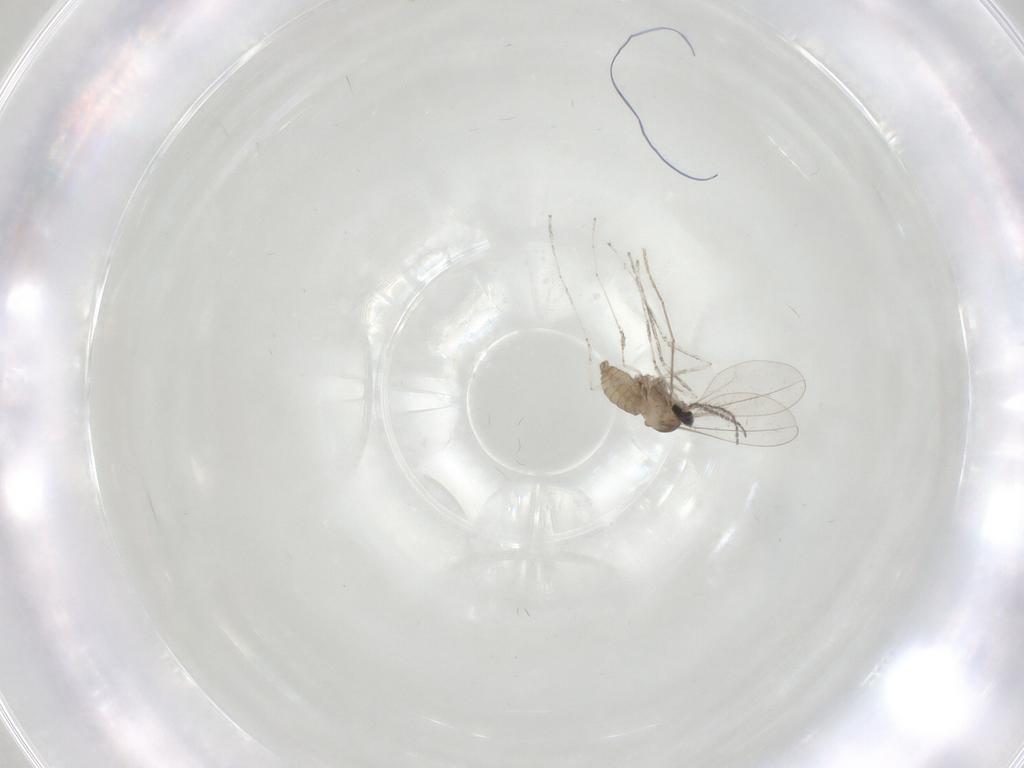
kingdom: Animalia
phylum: Arthropoda
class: Insecta
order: Diptera
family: Cecidomyiidae
